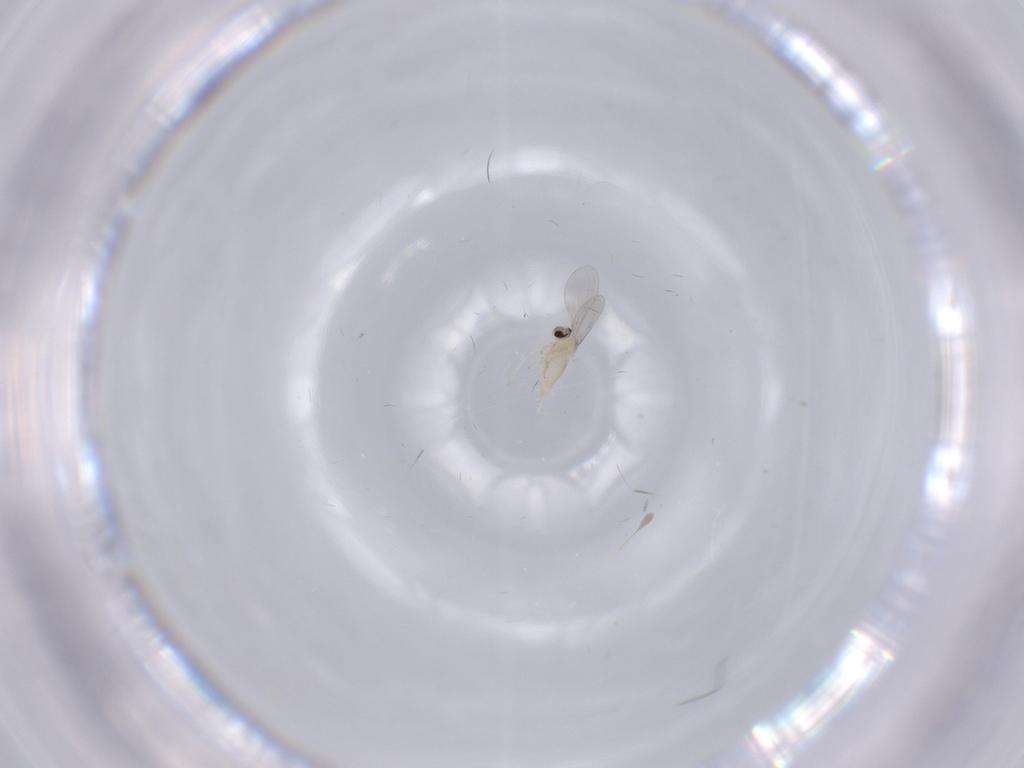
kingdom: Animalia
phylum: Arthropoda
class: Insecta
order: Diptera
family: Cecidomyiidae
